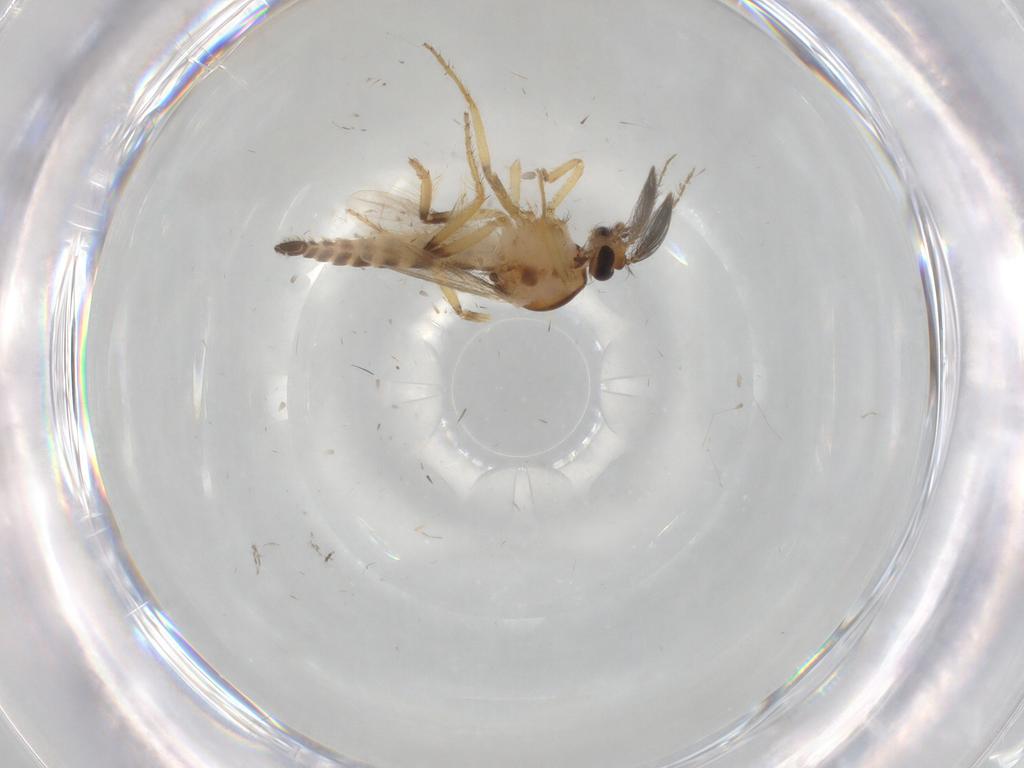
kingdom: Animalia
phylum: Arthropoda
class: Insecta
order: Diptera
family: Ceratopogonidae
